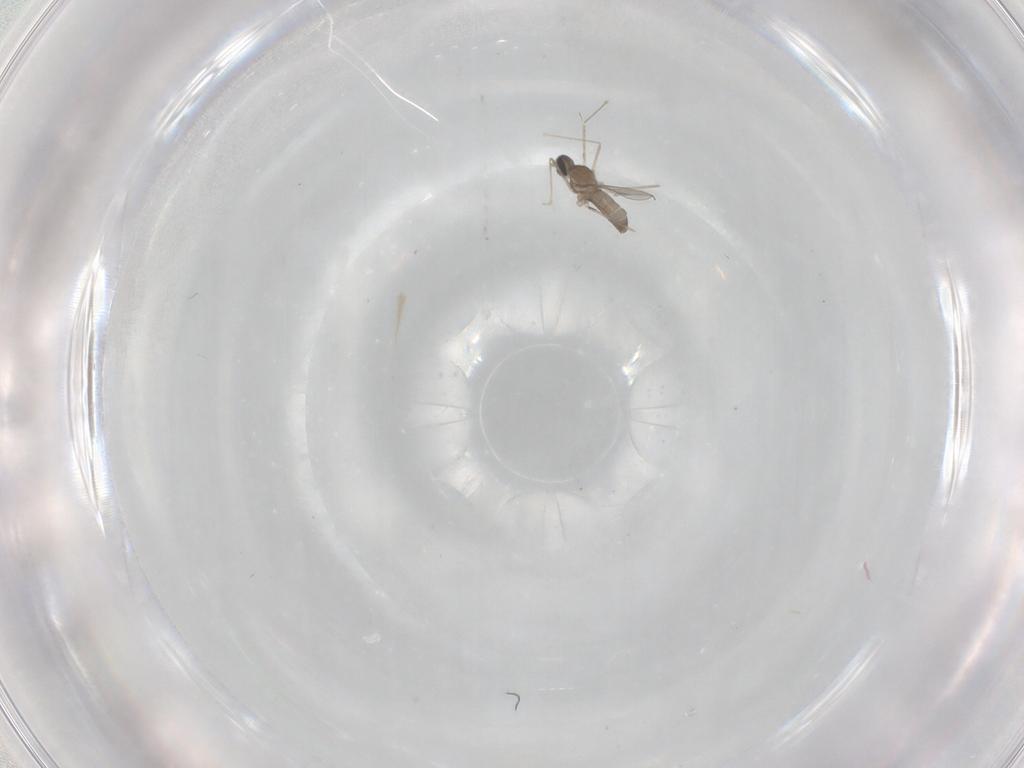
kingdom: Animalia
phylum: Arthropoda
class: Insecta
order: Diptera
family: Cecidomyiidae
